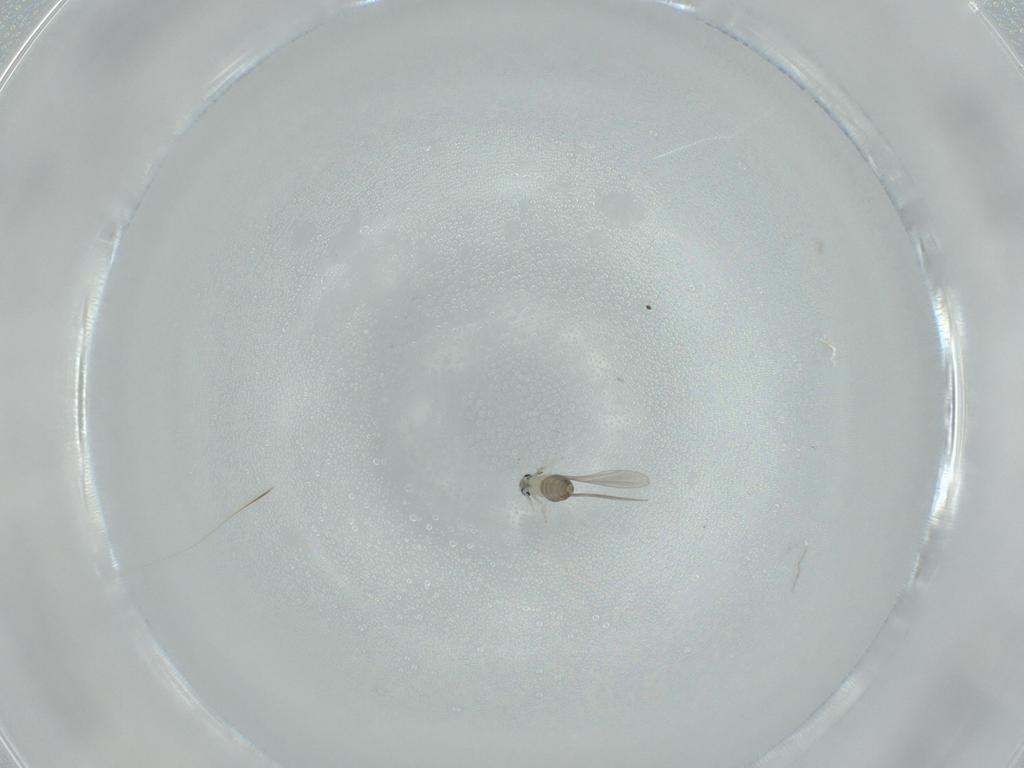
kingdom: Animalia
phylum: Arthropoda
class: Insecta
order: Diptera
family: Cecidomyiidae
